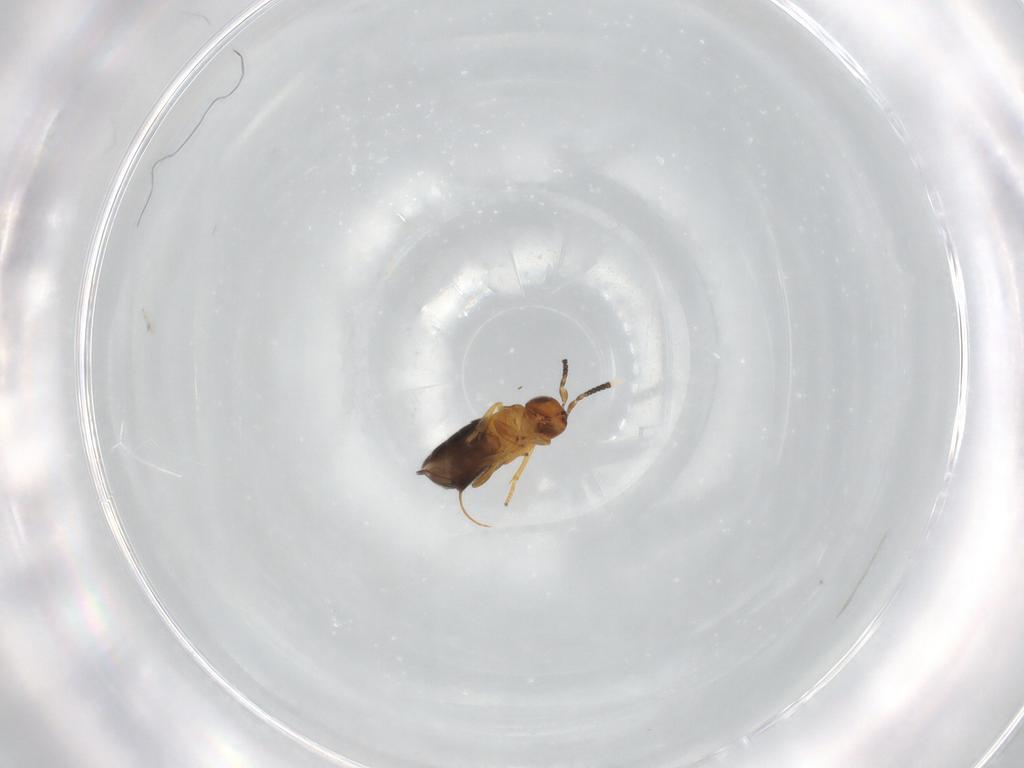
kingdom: Animalia
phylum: Arthropoda
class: Insecta
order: Hymenoptera
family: Encyrtidae
